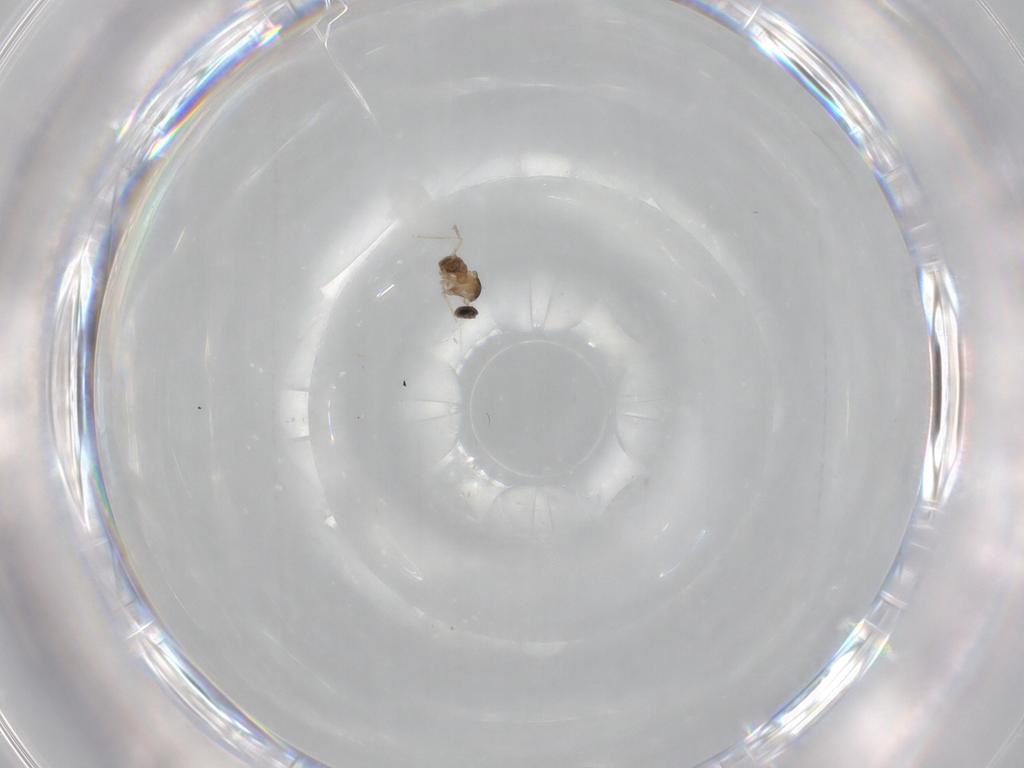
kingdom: Animalia
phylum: Arthropoda
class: Insecta
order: Diptera
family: Cecidomyiidae
